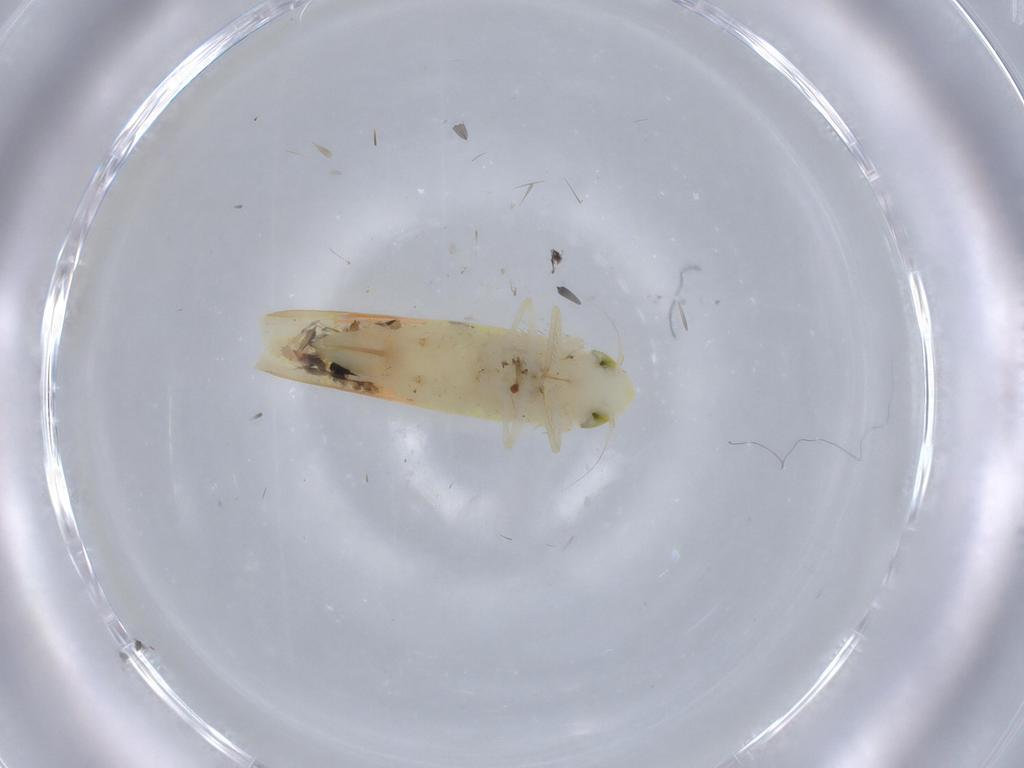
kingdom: Animalia
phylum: Arthropoda
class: Insecta
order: Hemiptera
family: Cicadellidae
